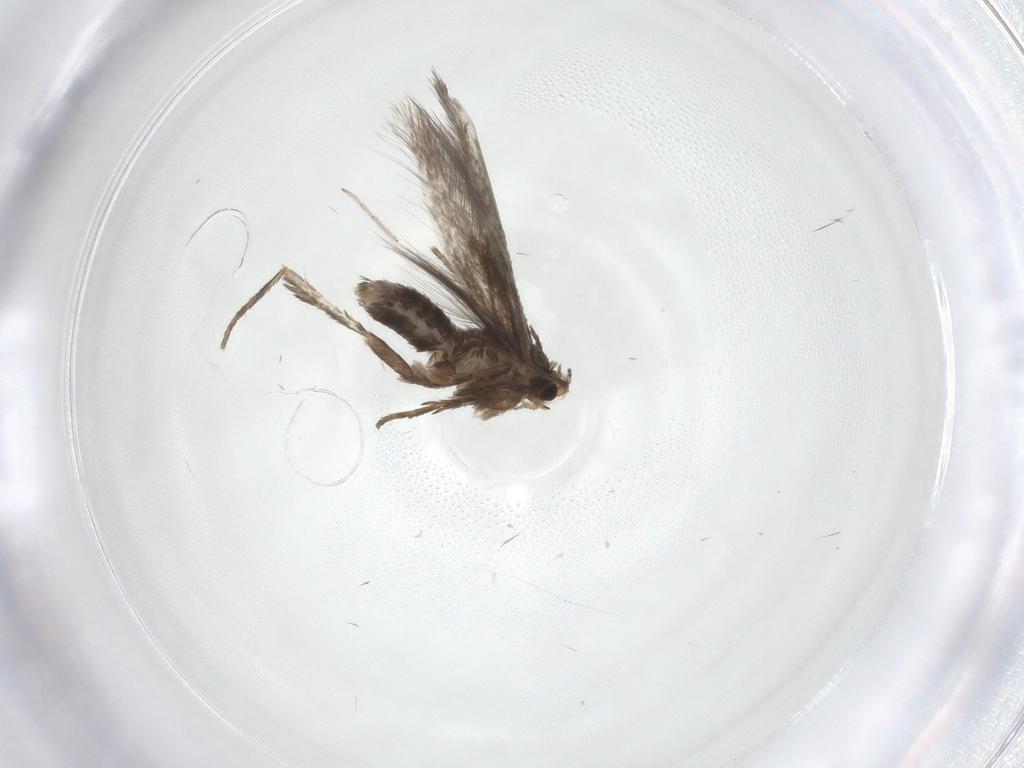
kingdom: Animalia
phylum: Arthropoda
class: Insecta
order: Lepidoptera
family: Nepticulidae
